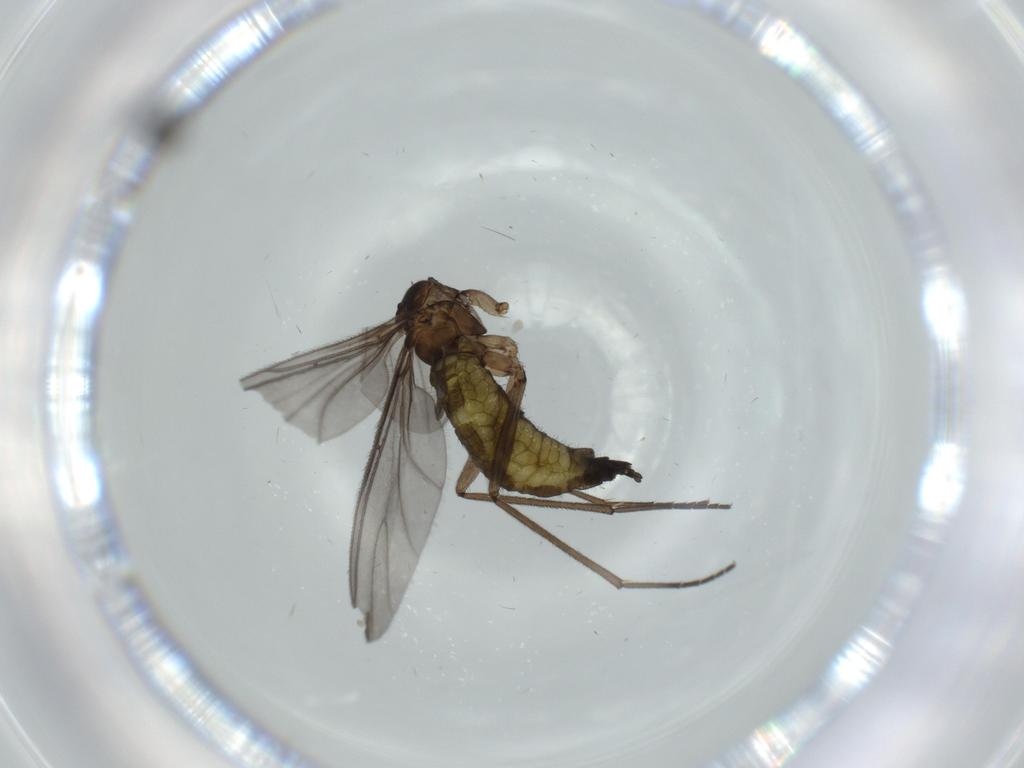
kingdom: Animalia
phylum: Arthropoda
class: Insecta
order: Diptera
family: Sciaridae
